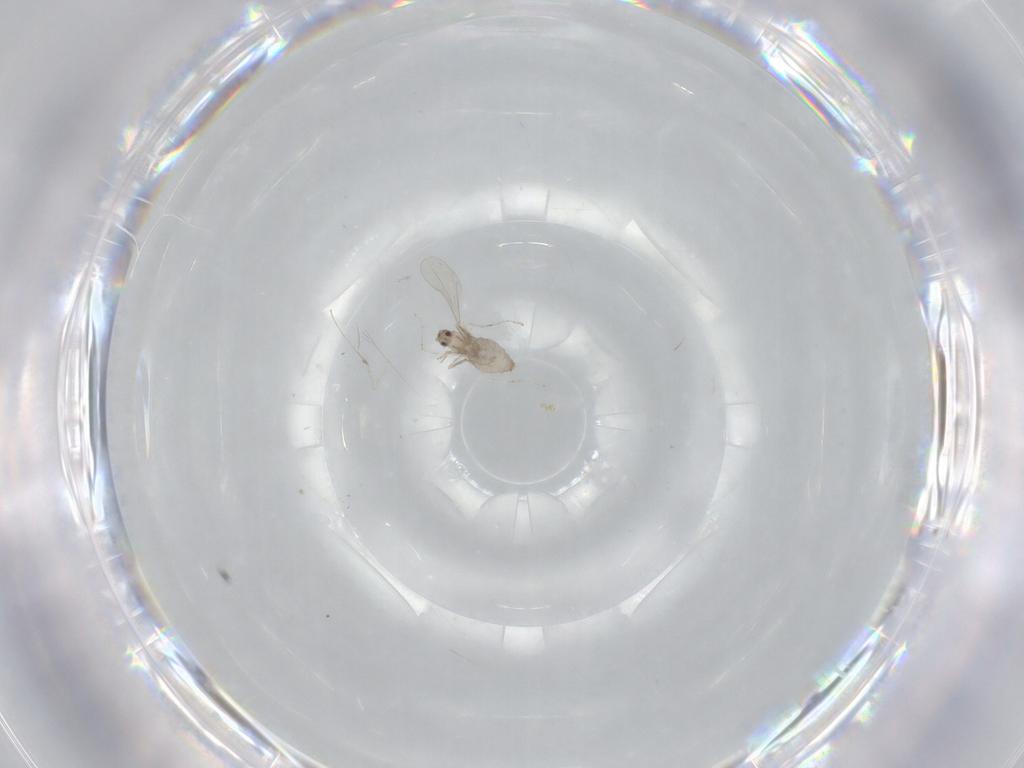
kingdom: Animalia
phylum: Arthropoda
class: Insecta
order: Diptera
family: Cecidomyiidae
